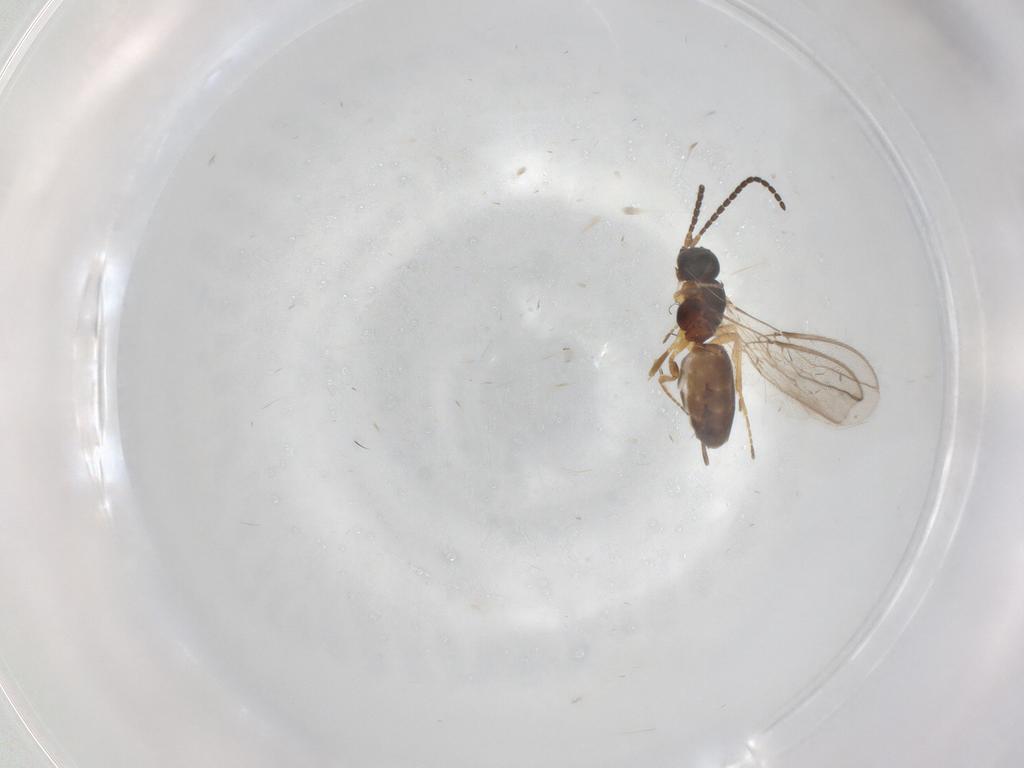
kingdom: Animalia
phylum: Arthropoda
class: Insecta
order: Hymenoptera
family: Braconidae
